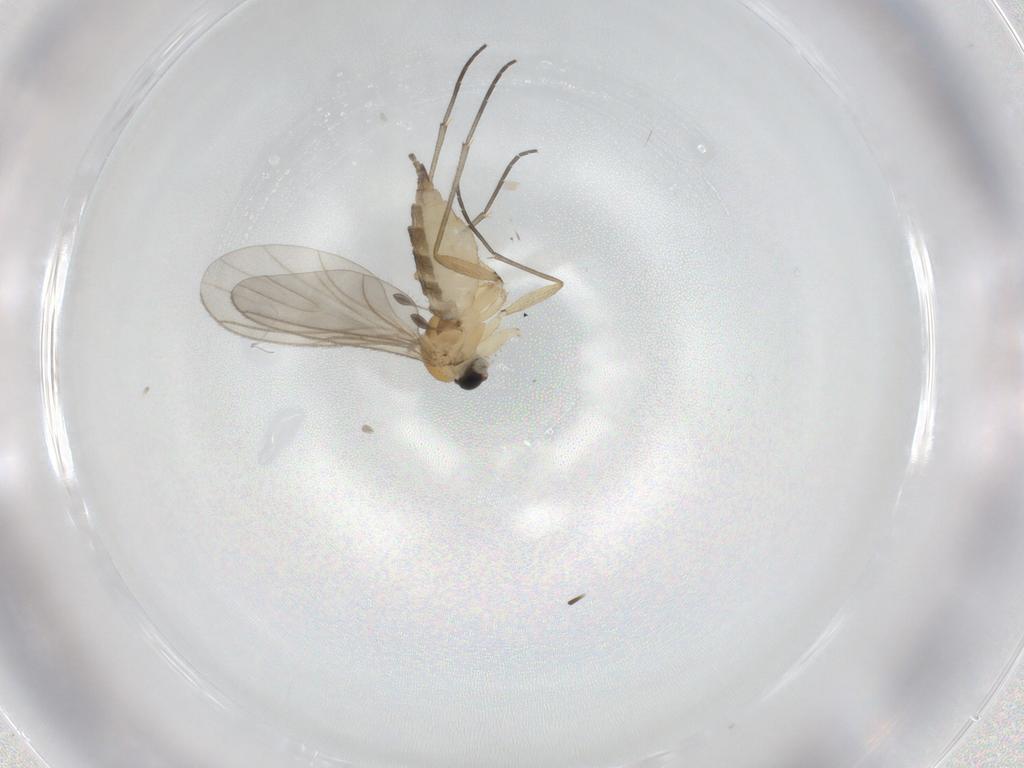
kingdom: Animalia
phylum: Arthropoda
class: Insecta
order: Diptera
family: Sciaridae
